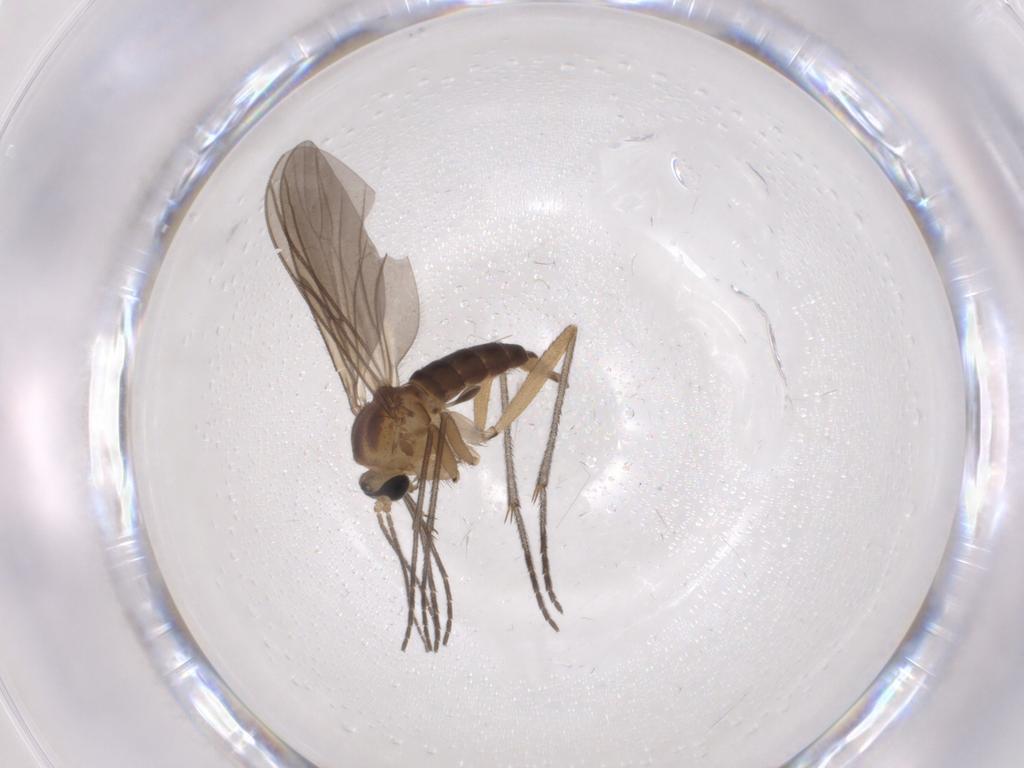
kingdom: Animalia
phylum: Arthropoda
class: Insecta
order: Diptera
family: Sciaridae
